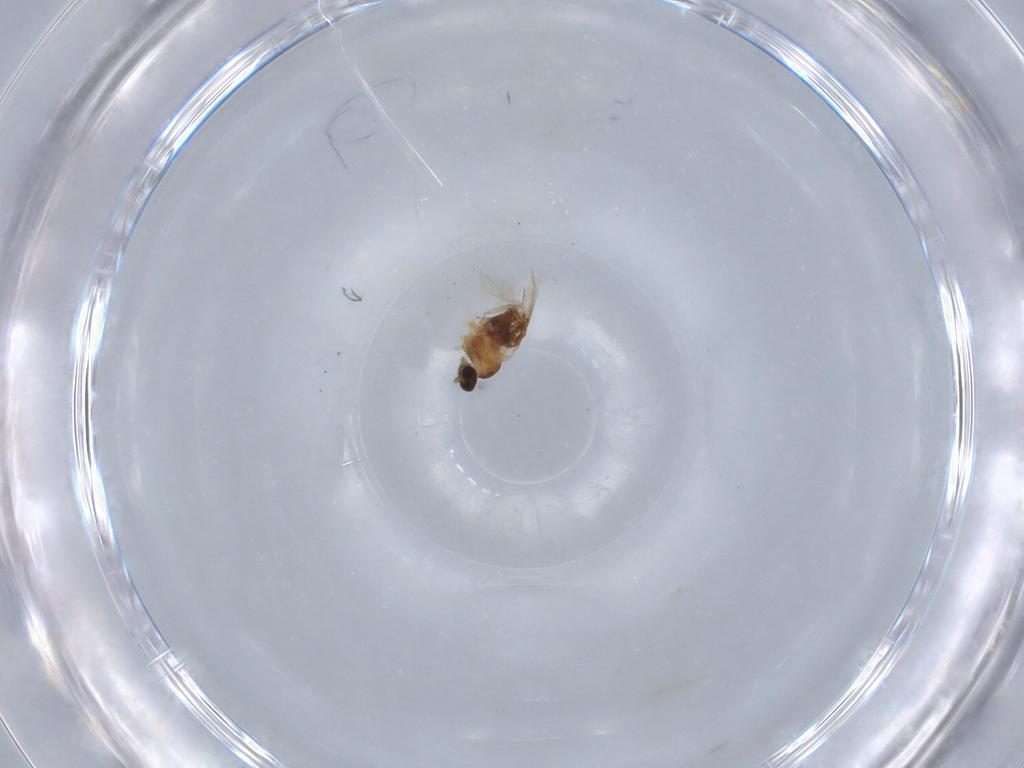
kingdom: Animalia
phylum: Arthropoda
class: Insecta
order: Diptera
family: Cecidomyiidae
